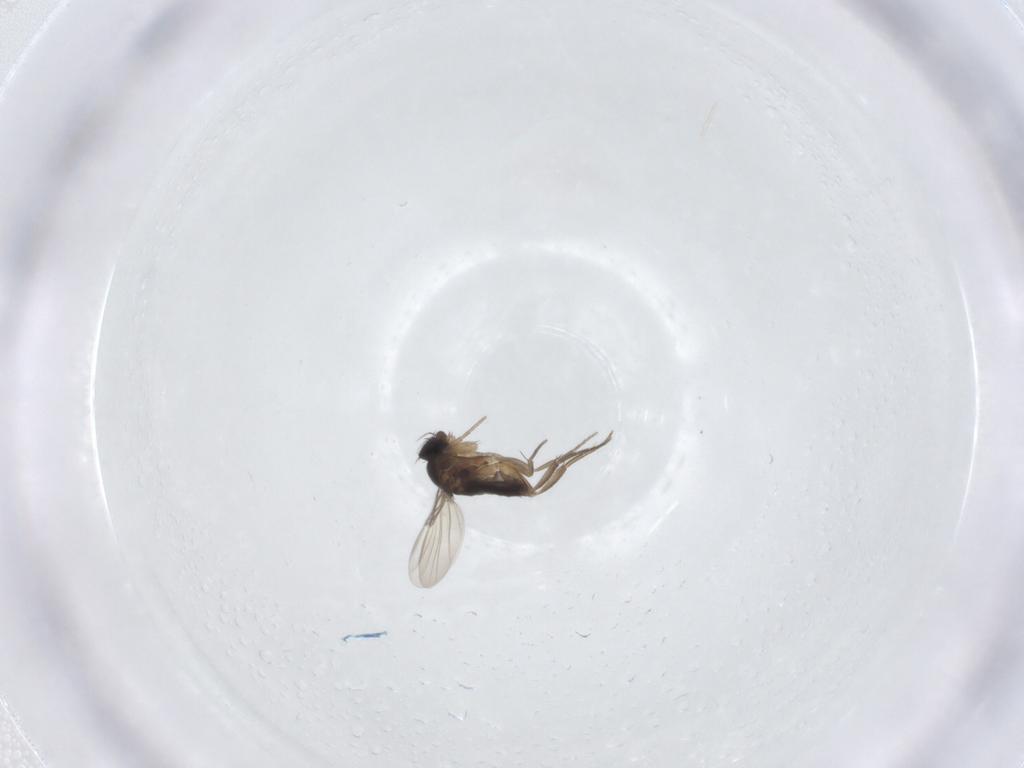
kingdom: Animalia
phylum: Arthropoda
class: Insecta
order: Diptera
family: Phoridae
